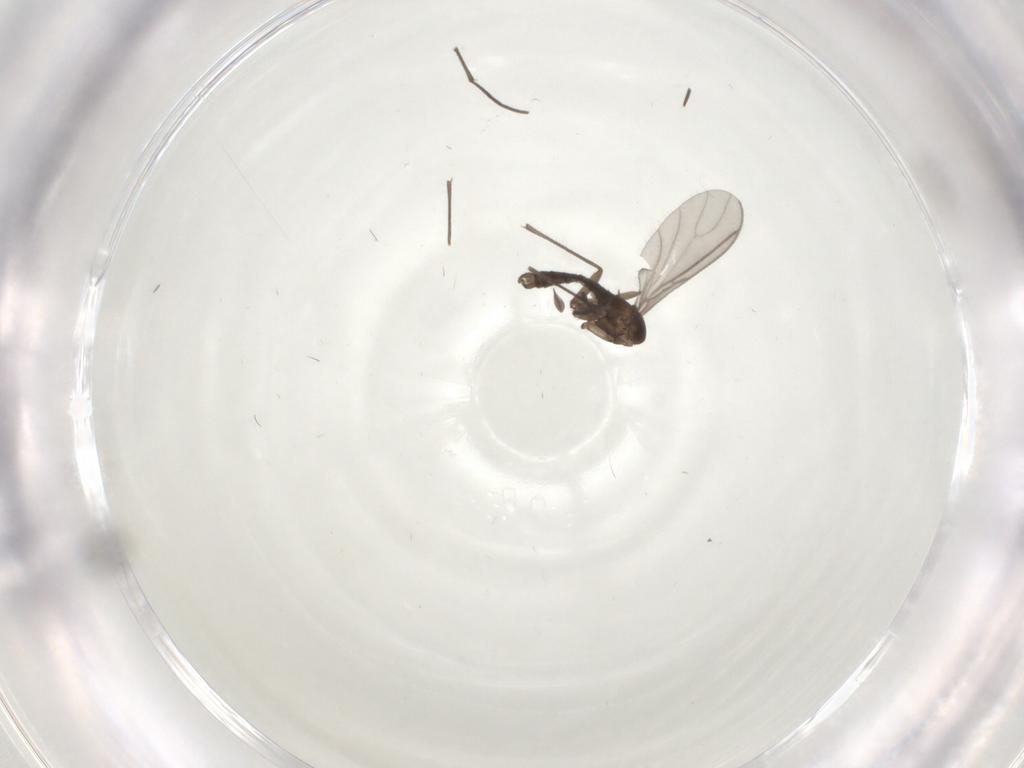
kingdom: Animalia
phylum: Arthropoda
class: Insecta
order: Diptera
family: Sciaridae
